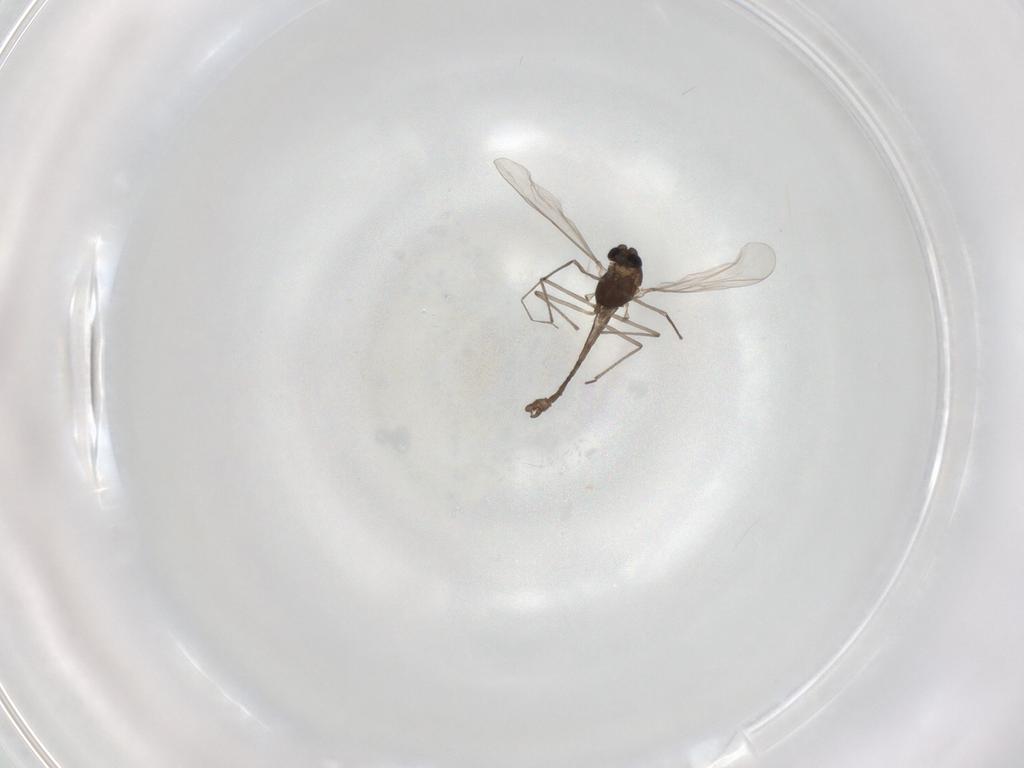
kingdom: Animalia
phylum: Arthropoda
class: Insecta
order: Diptera
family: Chironomidae
